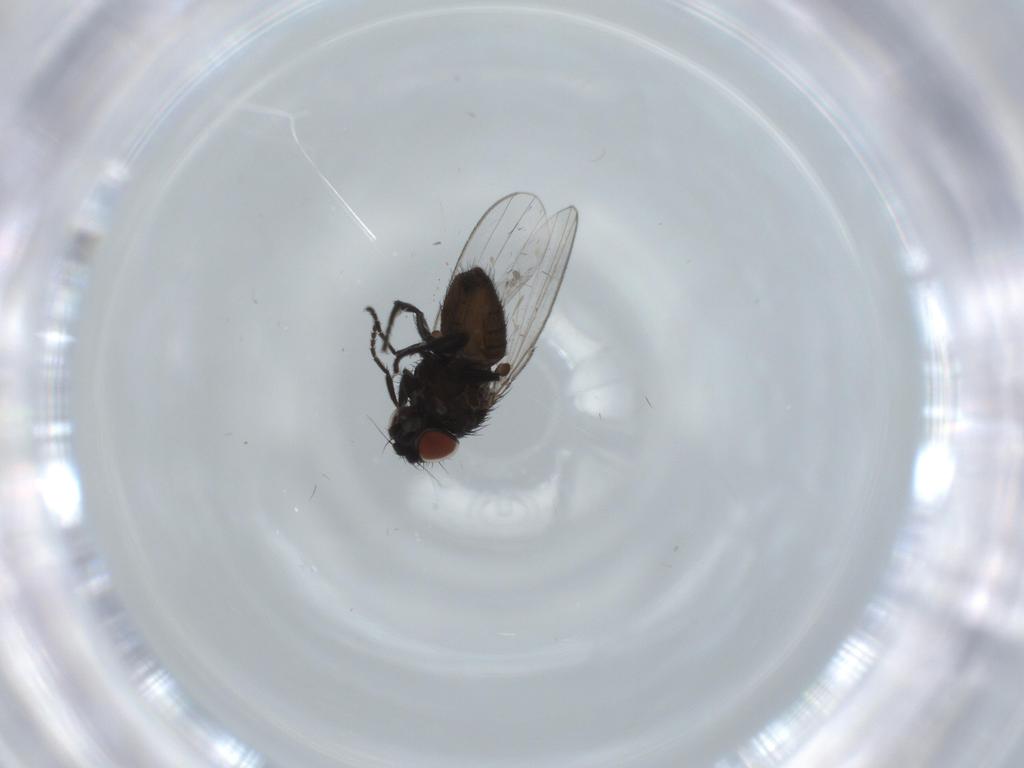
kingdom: Animalia
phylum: Arthropoda
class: Insecta
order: Diptera
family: Milichiidae
